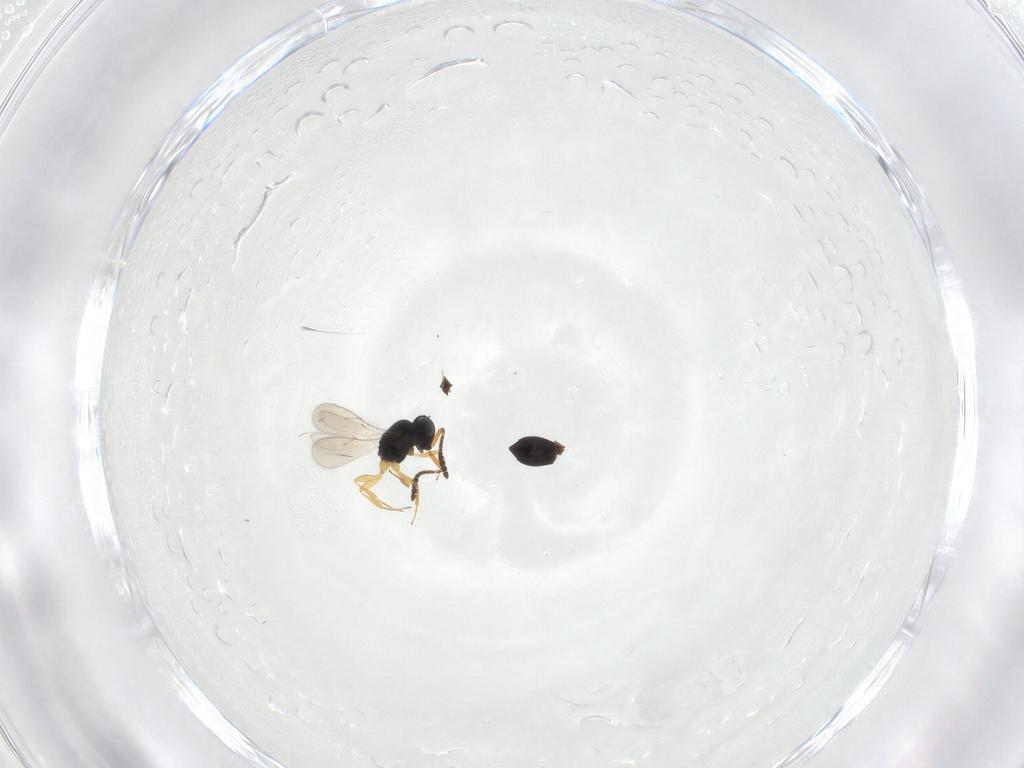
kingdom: Animalia
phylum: Arthropoda
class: Insecta
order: Hymenoptera
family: Scelionidae
